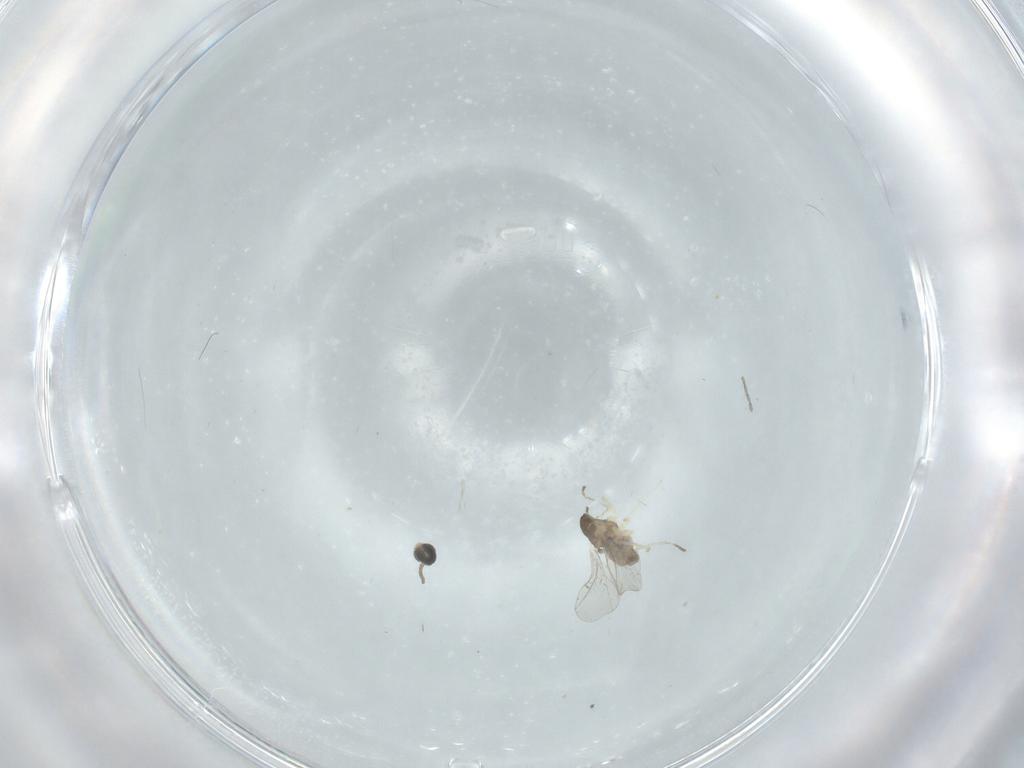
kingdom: Animalia
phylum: Arthropoda
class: Insecta
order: Diptera
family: Cecidomyiidae
